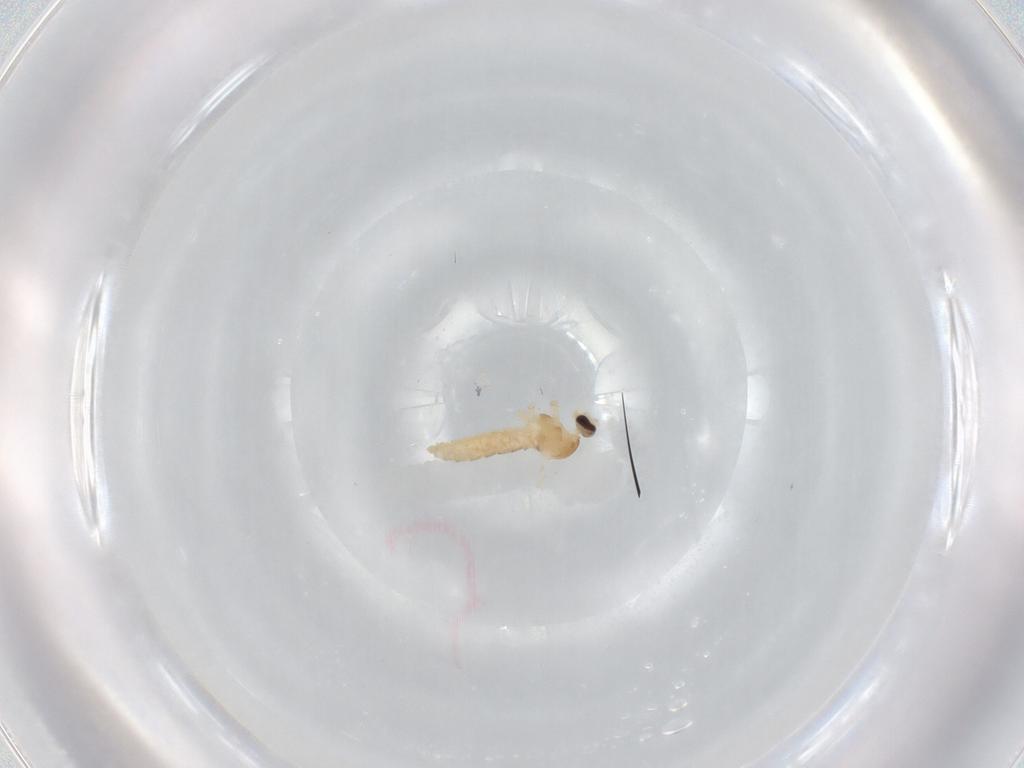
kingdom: Animalia
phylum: Arthropoda
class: Insecta
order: Diptera
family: Cecidomyiidae
